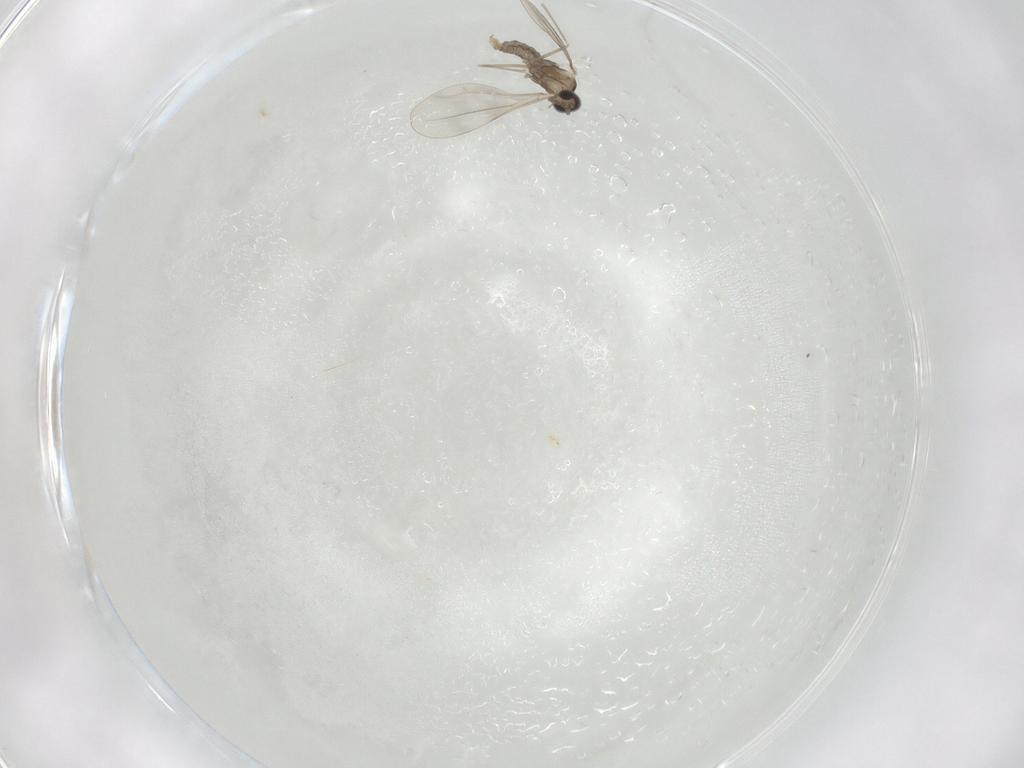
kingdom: Animalia
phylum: Arthropoda
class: Insecta
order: Diptera
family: Cecidomyiidae
